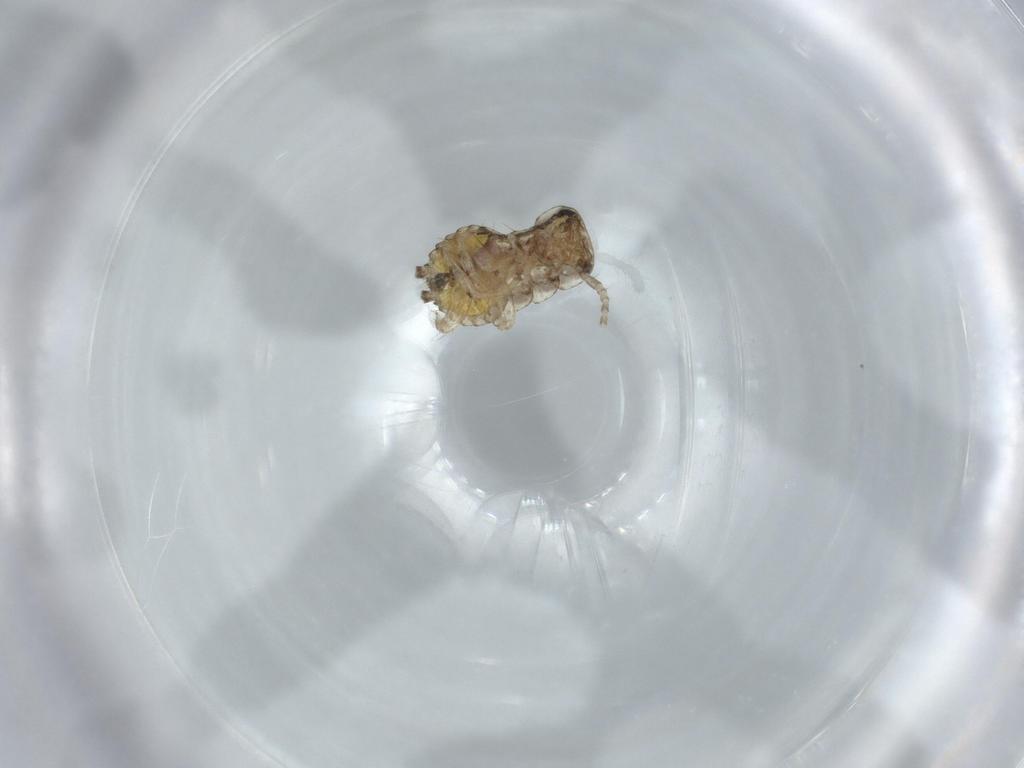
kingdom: Animalia
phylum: Arthropoda
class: Insecta
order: Blattodea
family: Ectobiidae
